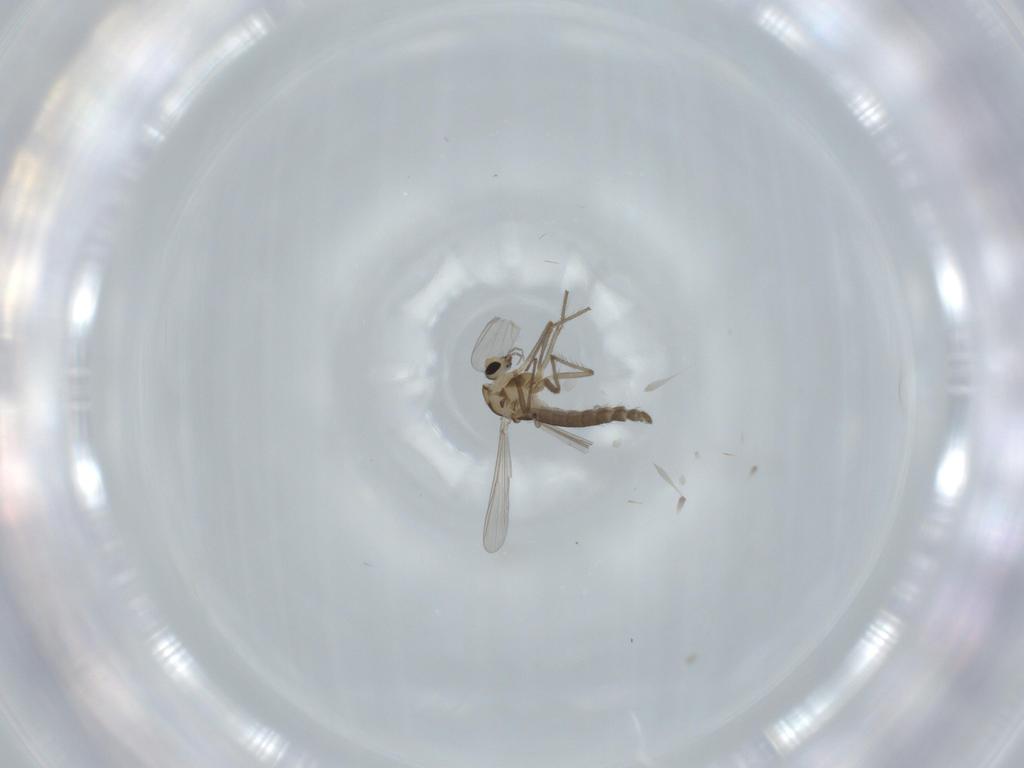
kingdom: Animalia
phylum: Arthropoda
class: Insecta
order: Diptera
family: Chironomidae
